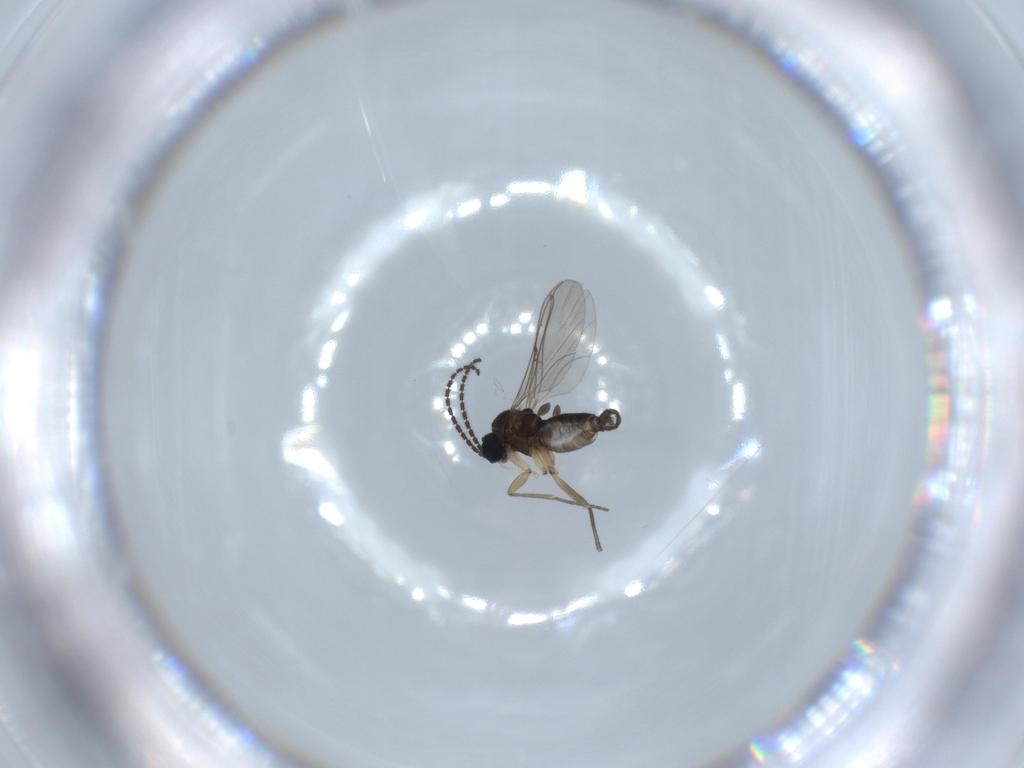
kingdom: Animalia
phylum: Arthropoda
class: Insecta
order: Diptera
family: Sciaridae
